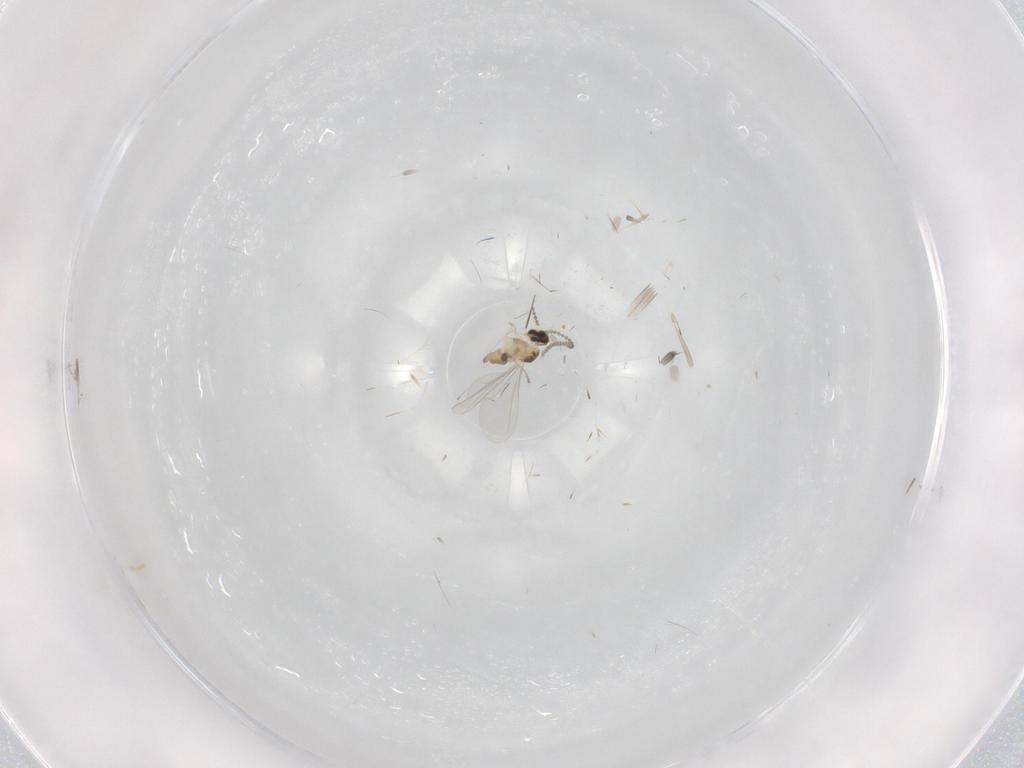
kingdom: Animalia
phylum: Arthropoda
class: Insecta
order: Diptera
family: Cecidomyiidae
